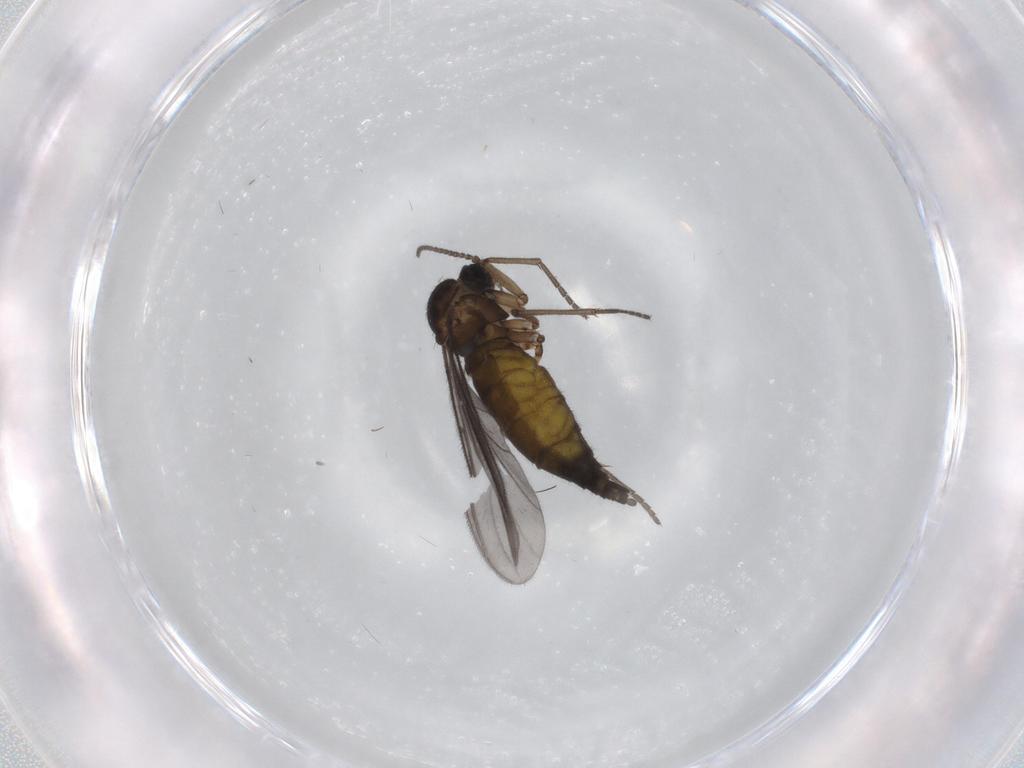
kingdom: Animalia
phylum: Arthropoda
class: Insecta
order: Diptera
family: Sciaridae
